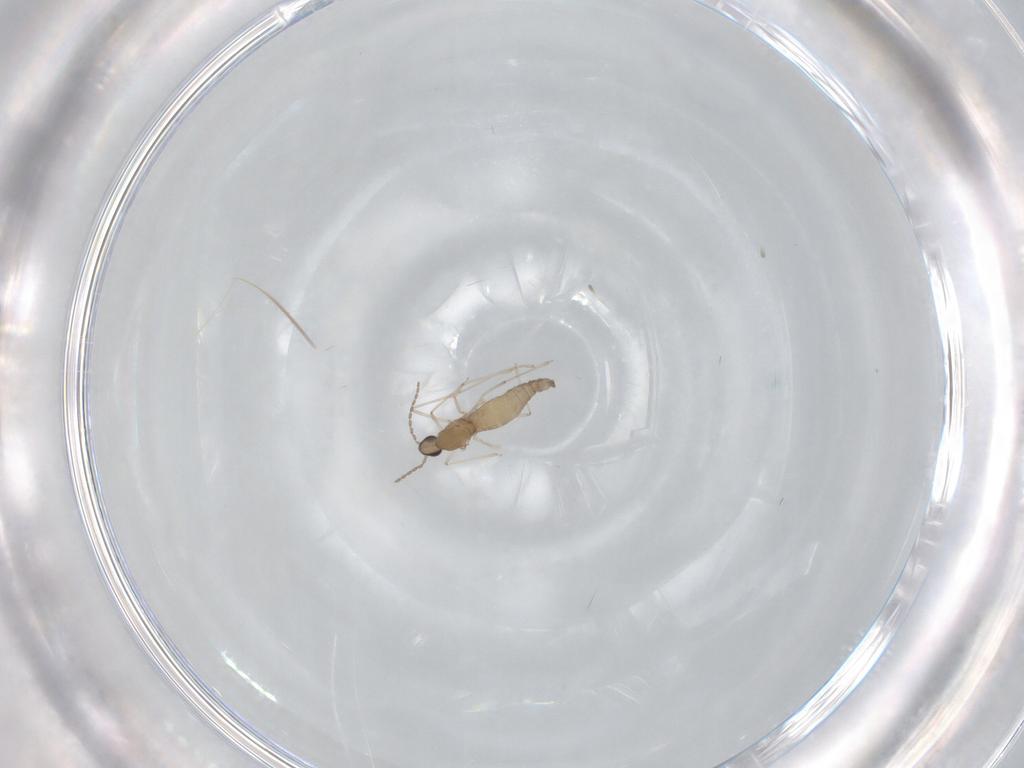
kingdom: Animalia
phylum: Arthropoda
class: Insecta
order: Diptera
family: Cecidomyiidae
